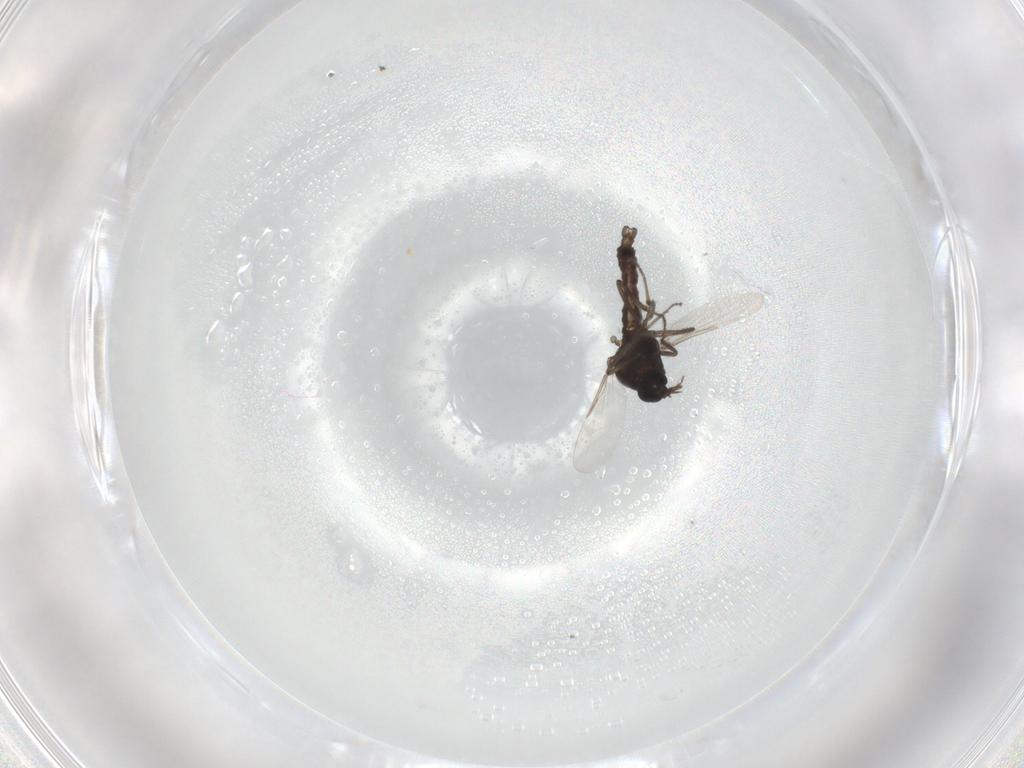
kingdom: Animalia
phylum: Arthropoda
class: Insecta
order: Diptera
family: Ceratopogonidae
